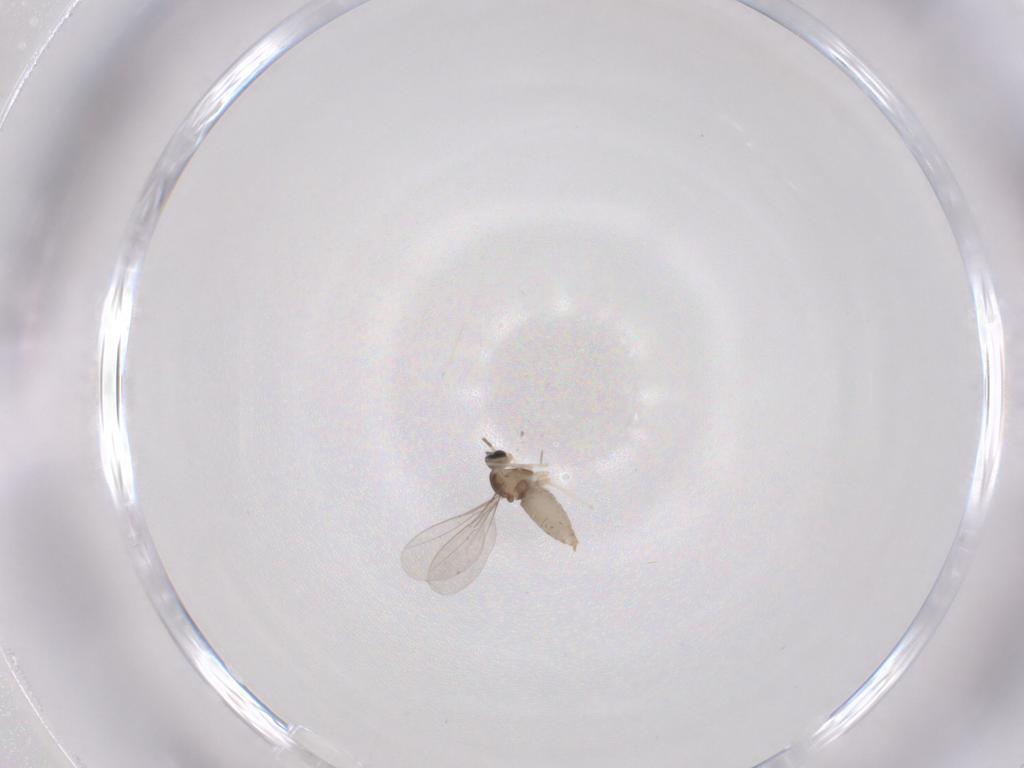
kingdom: Animalia
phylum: Arthropoda
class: Insecta
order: Diptera
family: Cecidomyiidae
